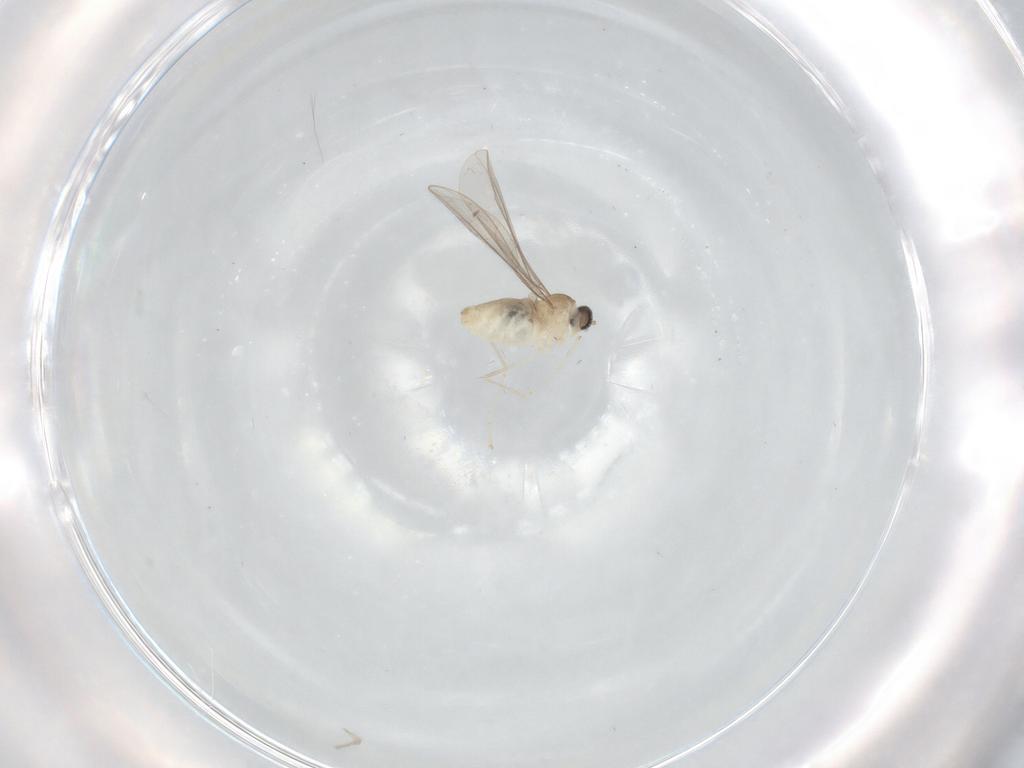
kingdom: Animalia
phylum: Arthropoda
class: Insecta
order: Diptera
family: Cecidomyiidae
